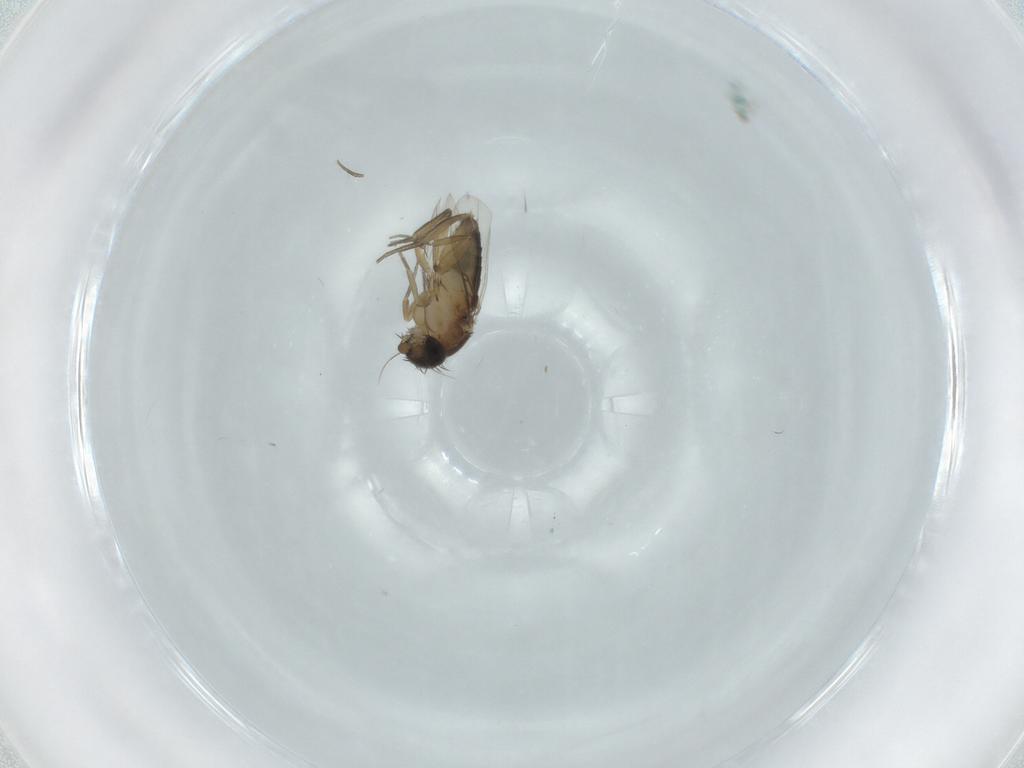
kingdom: Animalia
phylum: Arthropoda
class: Insecta
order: Diptera
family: Phoridae
